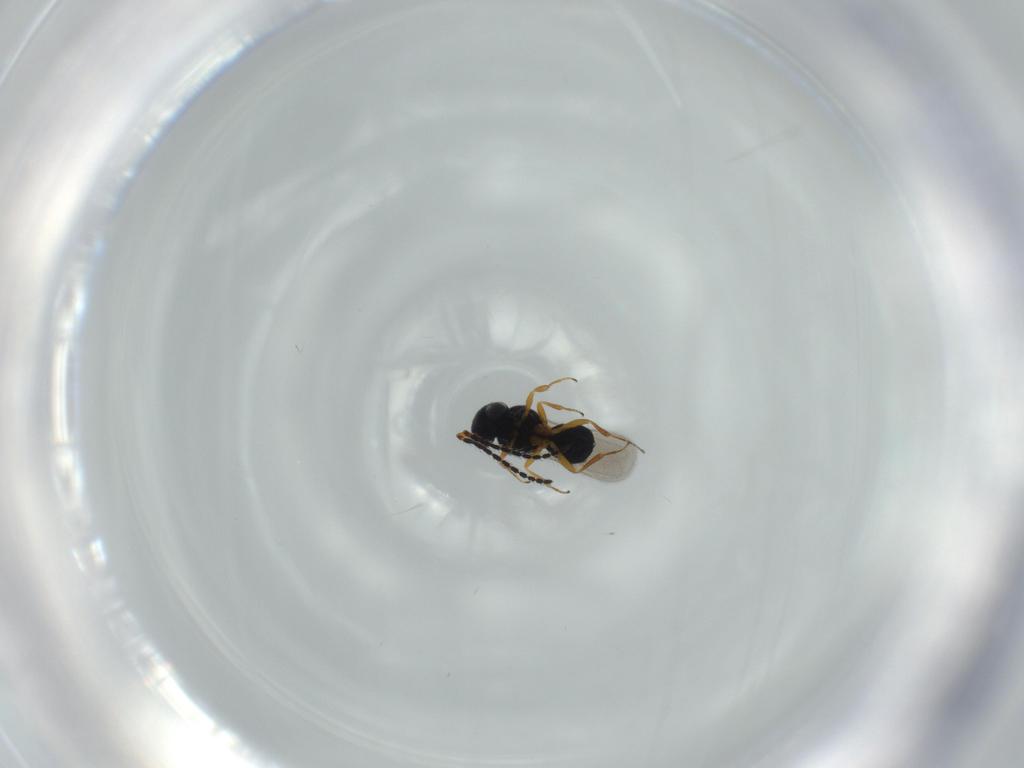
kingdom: Animalia
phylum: Arthropoda
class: Insecta
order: Hymenoptera
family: Scelionidae
